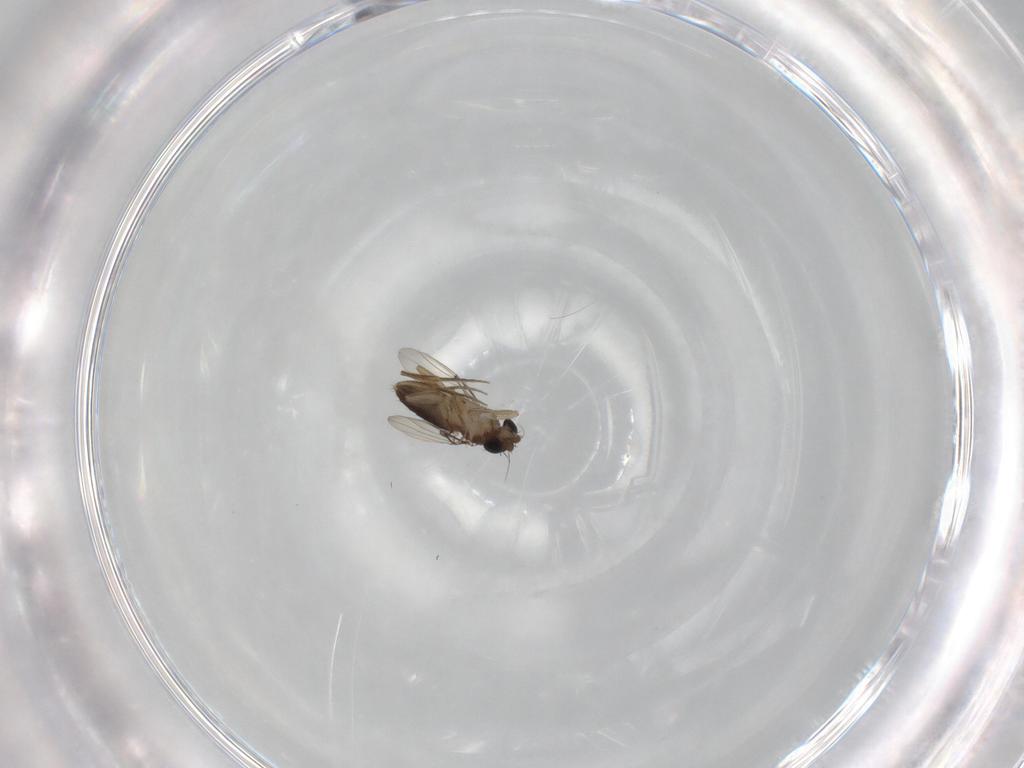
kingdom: Animalia
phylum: Arthropoda
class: Insecta
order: Diptera
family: Phoridae
